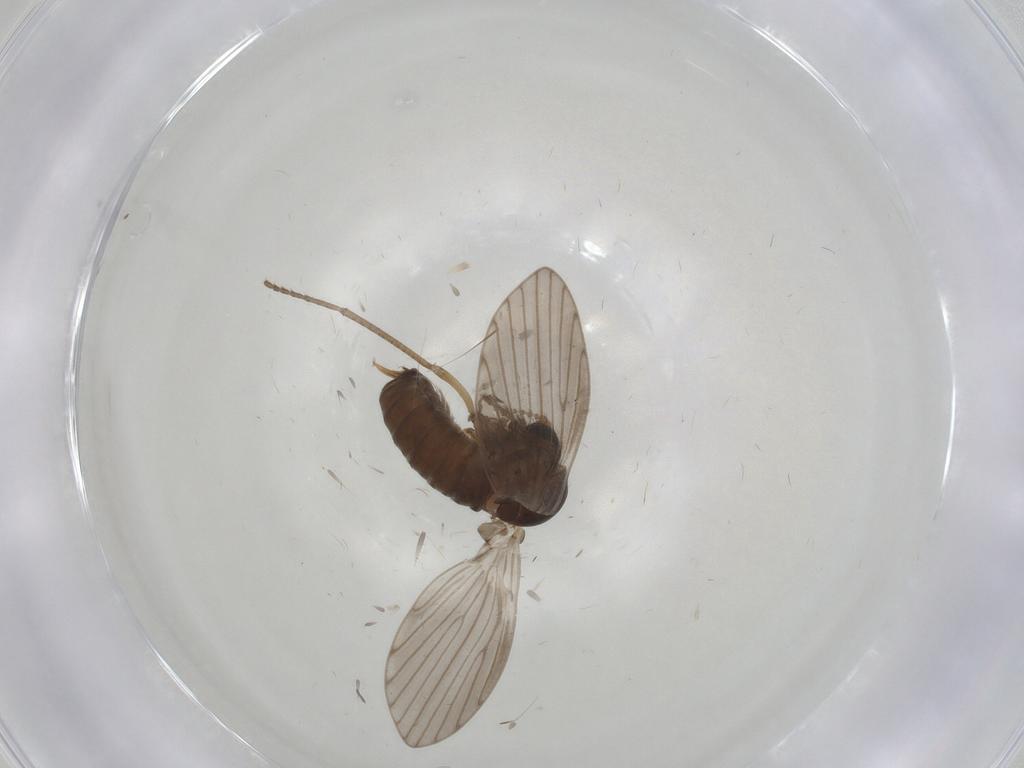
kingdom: Animalia
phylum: Arthropoda
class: Insecta
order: Diptera
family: Psychodidae
